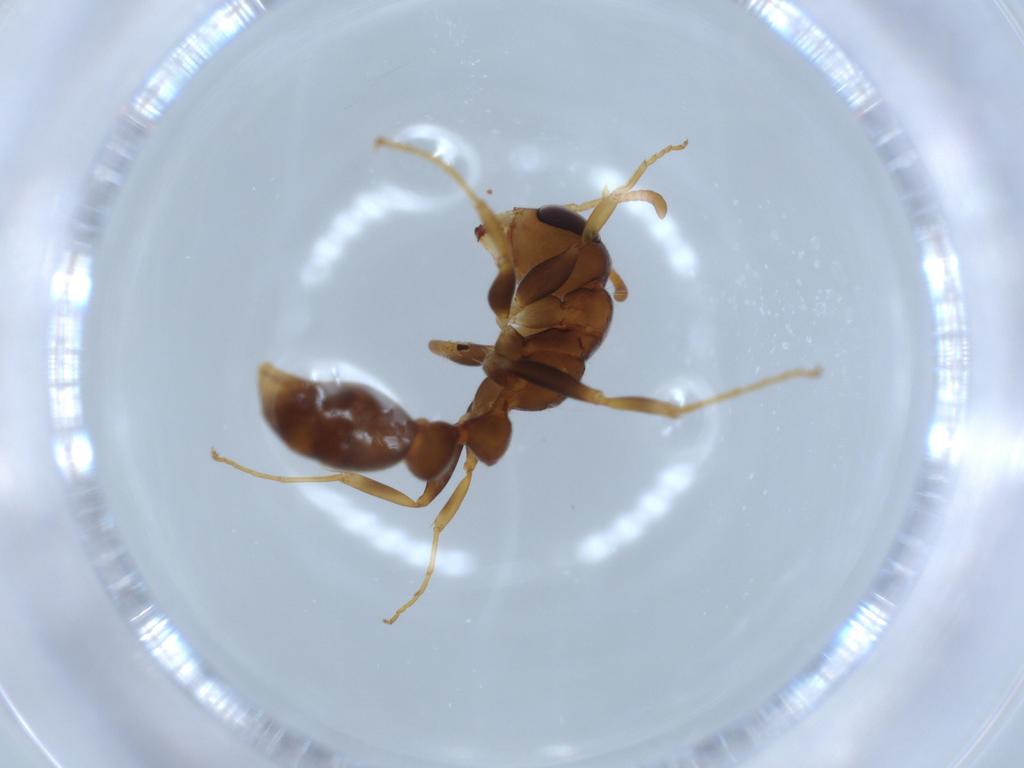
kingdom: Animalia
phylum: Arthropoda
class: Insecta
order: Hymenoptera
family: Formicidae
